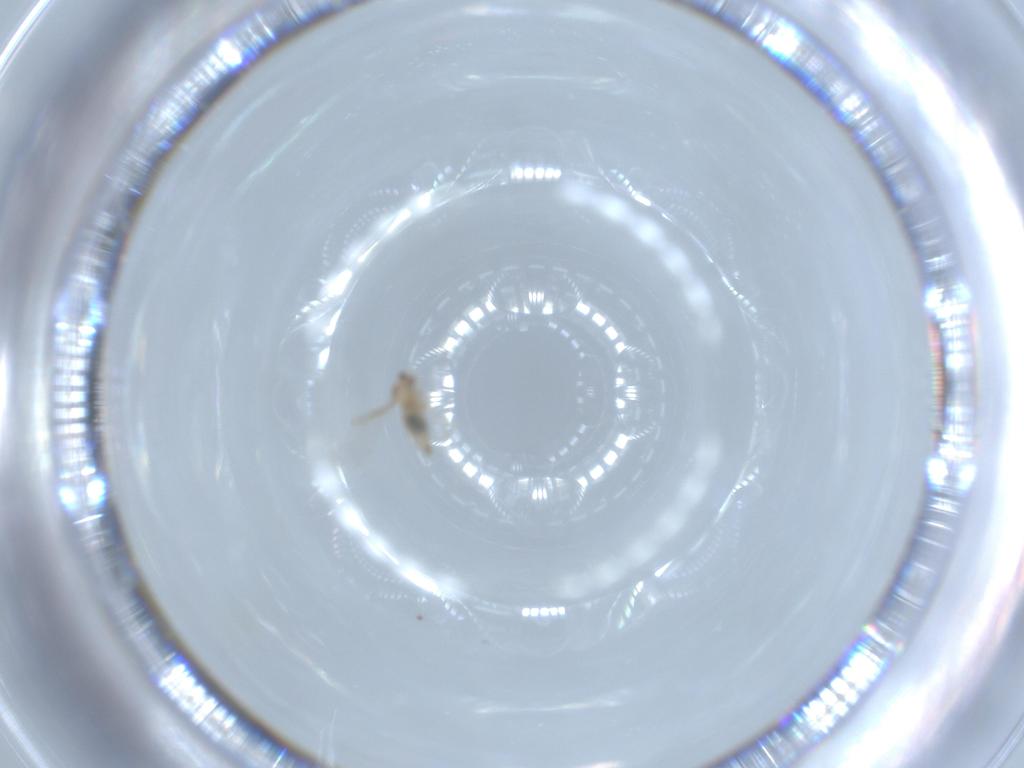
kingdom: Animalia
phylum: Arthropoda
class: Insecta
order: Diptera
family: Cecidomyiidae
